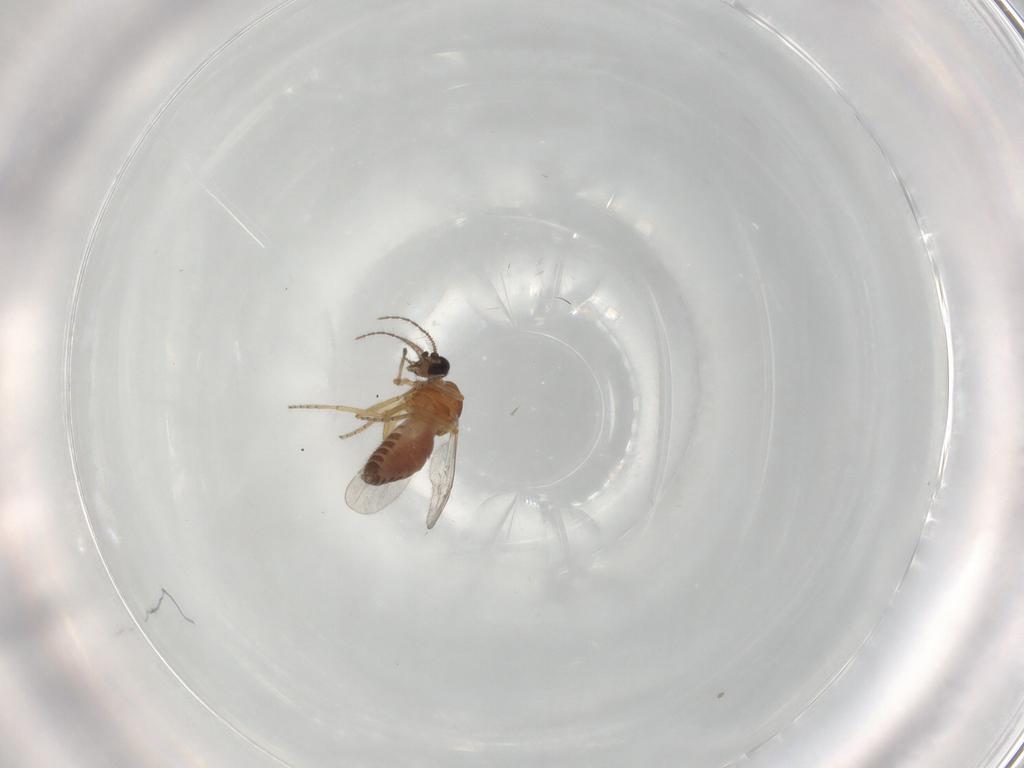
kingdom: Animalia
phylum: Arthropoda
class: Insecta
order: Diptera
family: Ceratopogonidae
